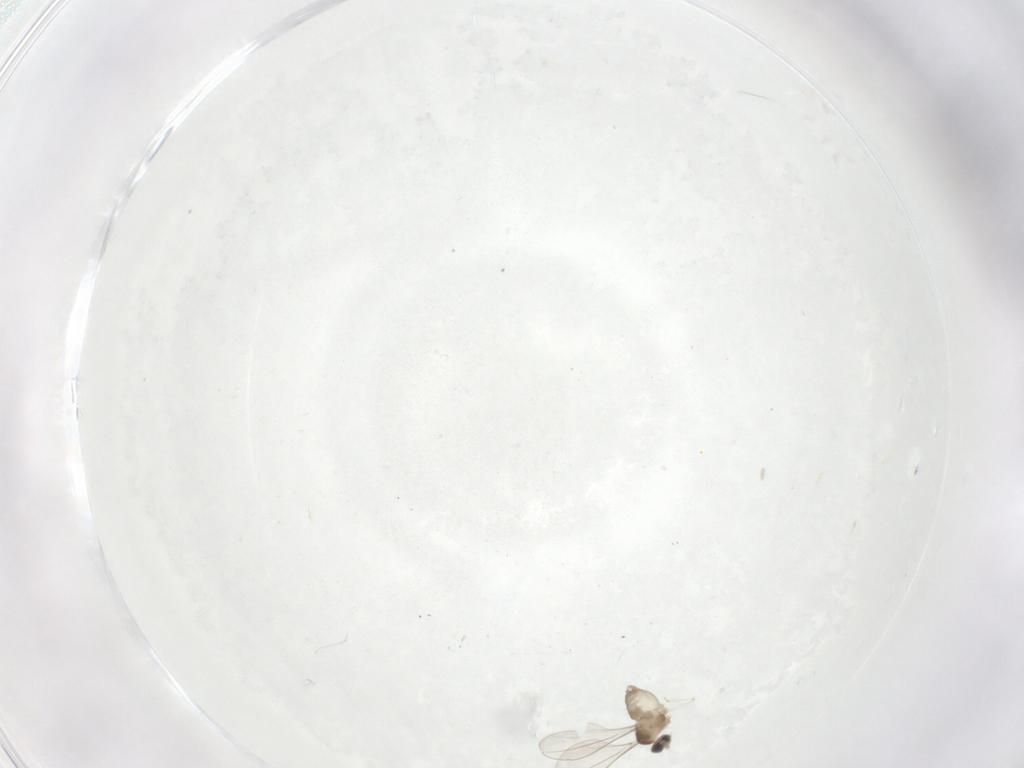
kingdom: Animalia
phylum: Arthropoda
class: Insecta
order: Diptera
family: Cecidomyiidae
